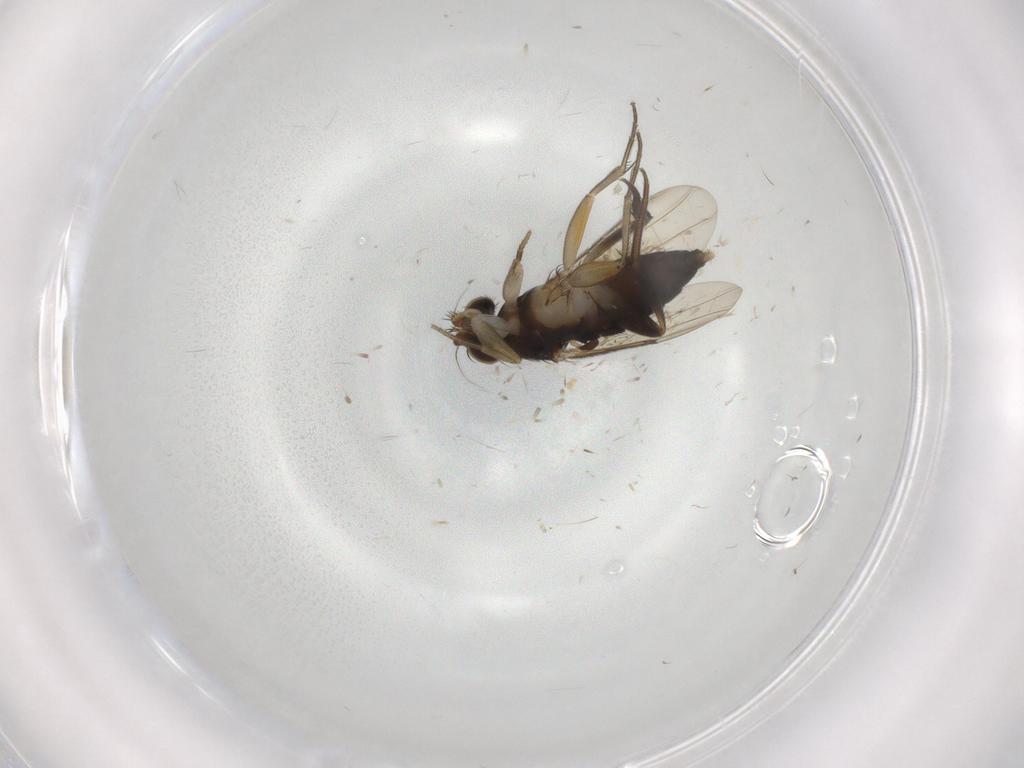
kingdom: Animalia
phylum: Arthropoda
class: Insecta
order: Diptera
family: Phoridae
